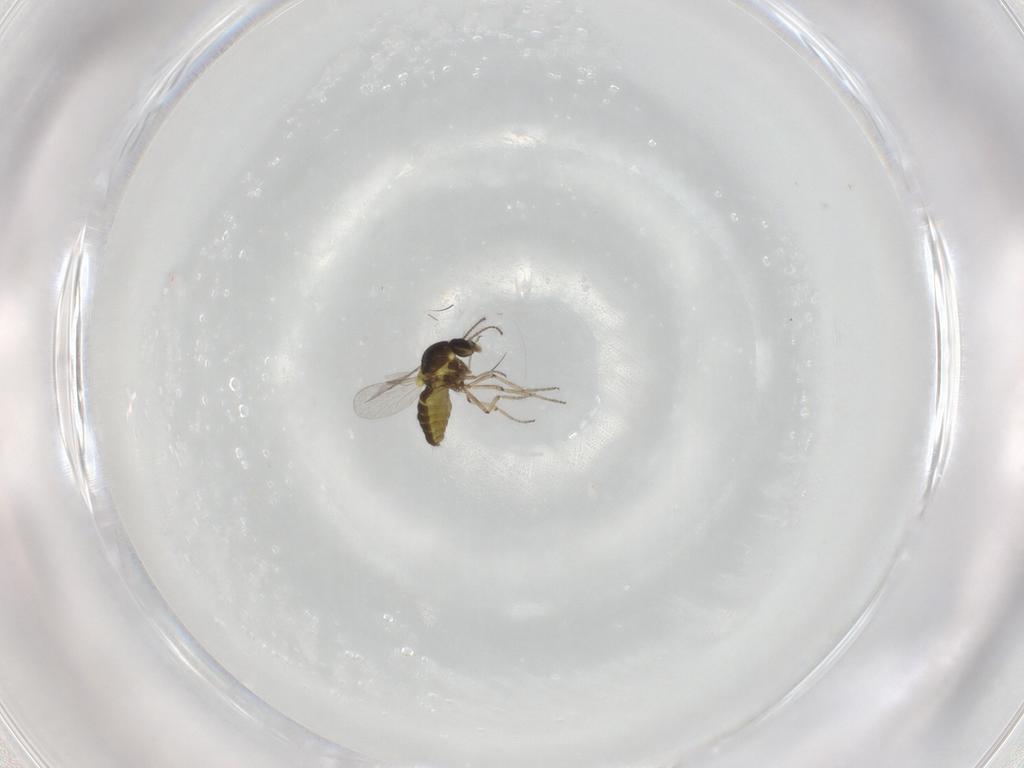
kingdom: Animalia
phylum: Arthropoda
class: Insecta
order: Diptera
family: Ceratopogonidae
